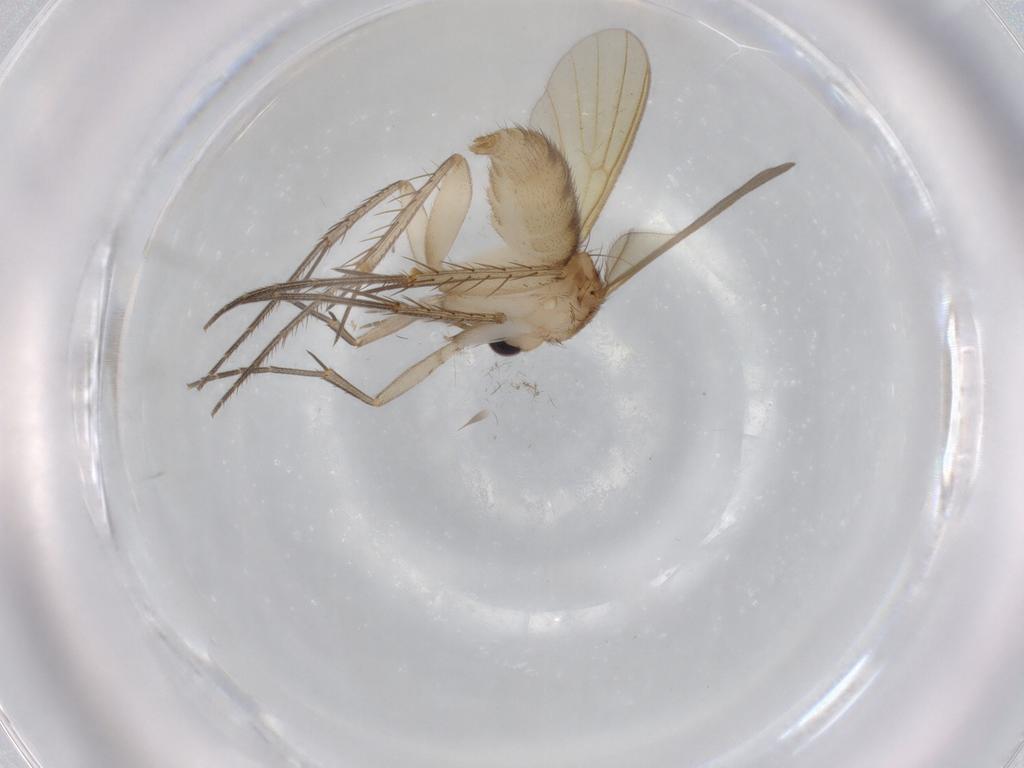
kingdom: Animalia
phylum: Arthropoda
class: Insecta
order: Diptera
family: Mycetophilidae
